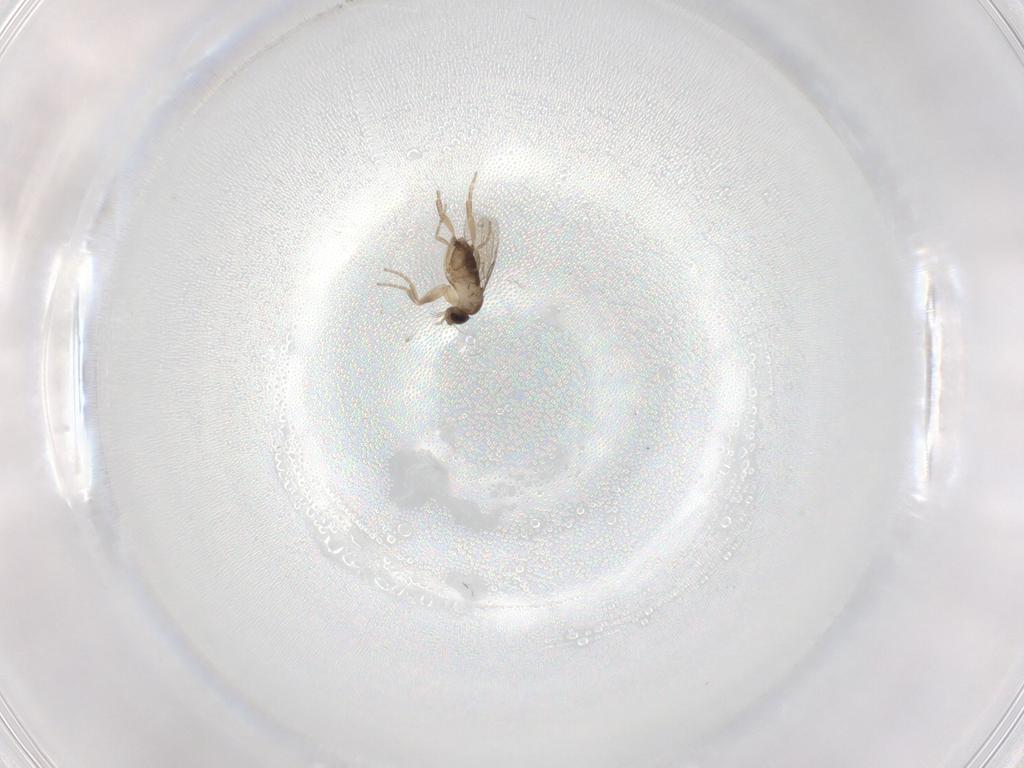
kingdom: Animalia
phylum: Arthropoda
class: Insecta
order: Diptera
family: Phoridae
